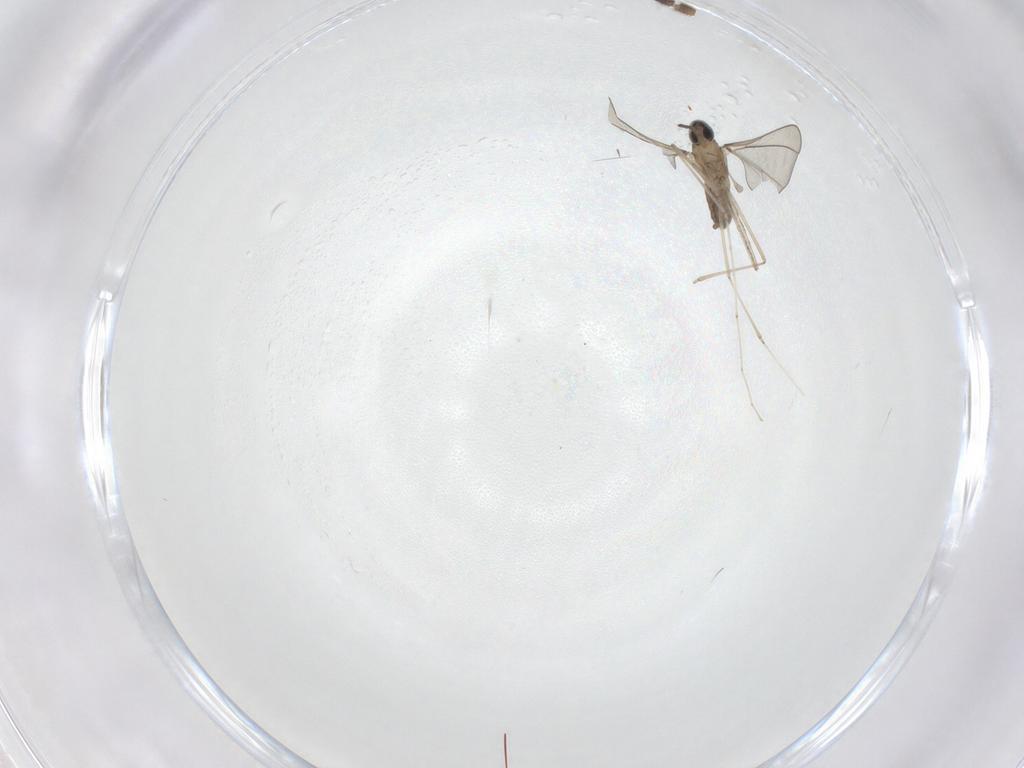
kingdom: Animalia
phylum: Arthropoda
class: Insecta
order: Diptera
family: Cecidomyiidae
